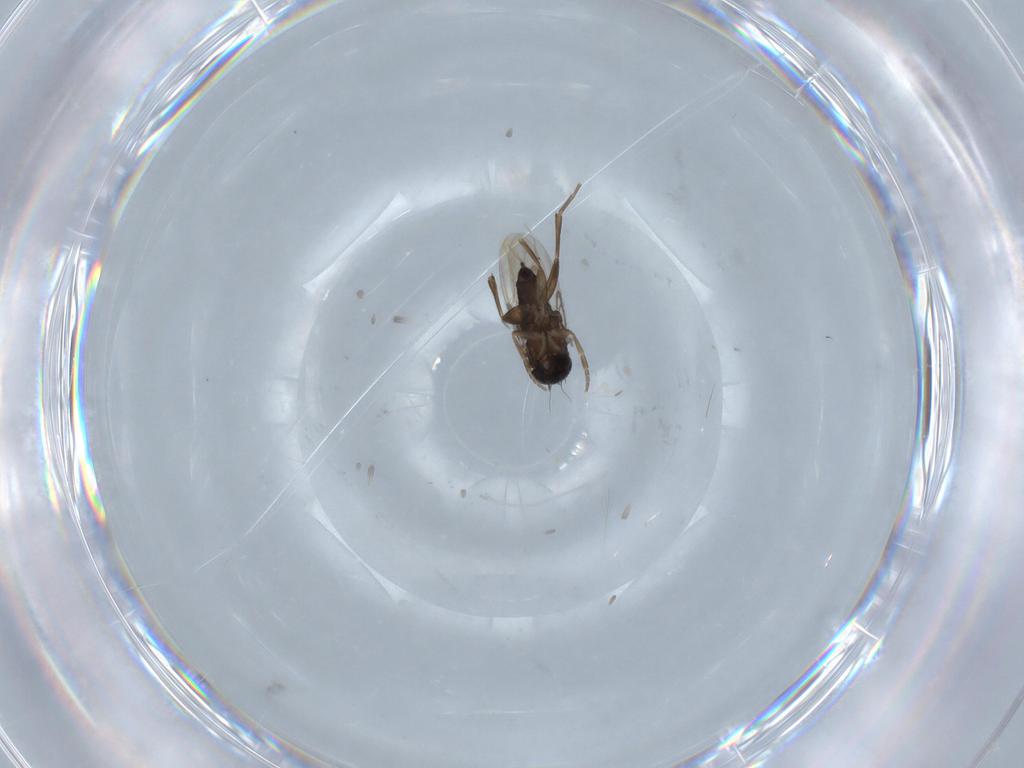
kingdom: Animalia
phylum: Arthropoda
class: Insecta
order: Diptera
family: Phoridae
